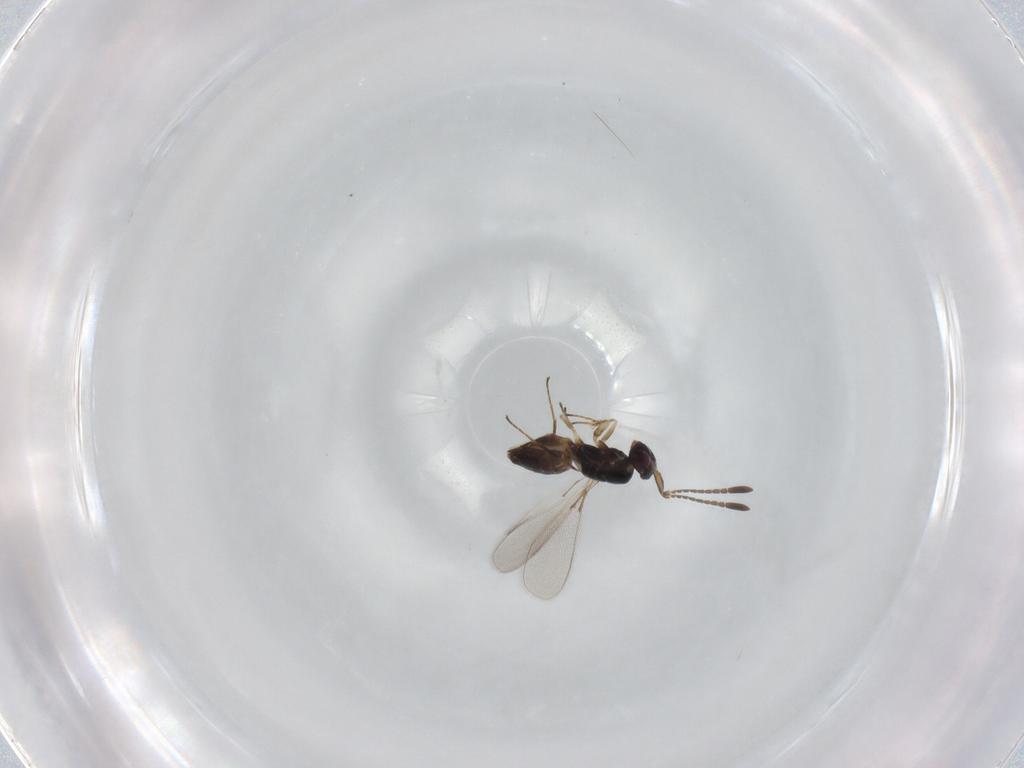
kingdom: Animalia
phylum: Arthropoda
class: Insecta
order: Hymenoptera
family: Mymaridae
